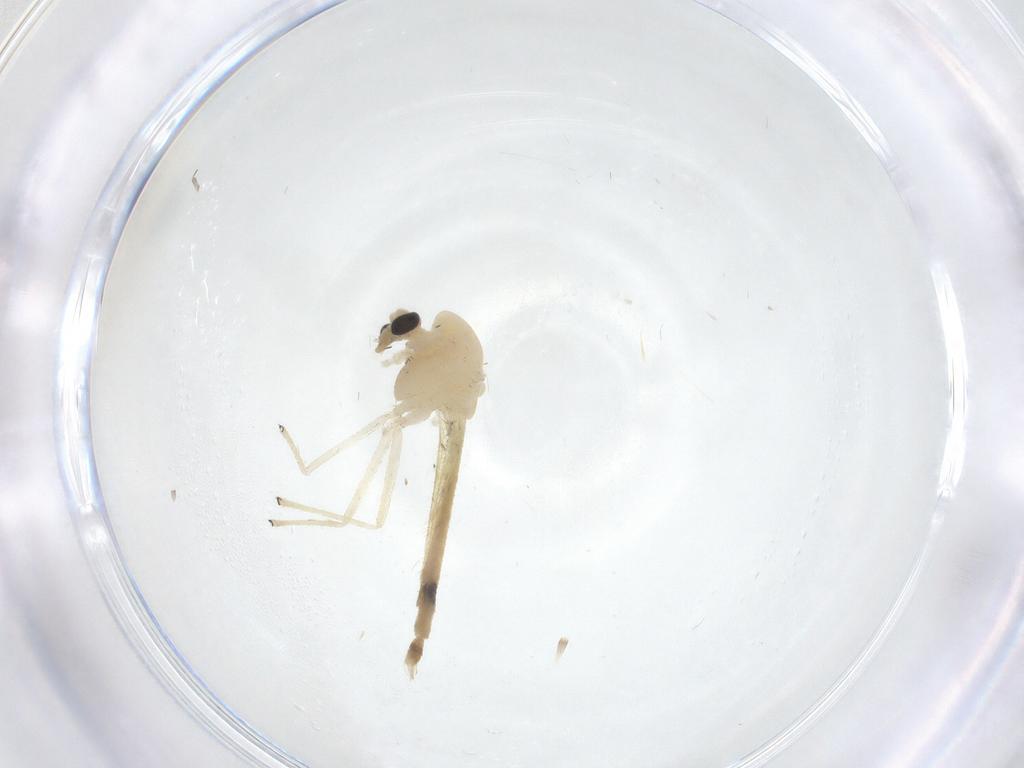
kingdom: Animalia
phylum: Arthropoda
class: Insecta
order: Diptera
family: Chironomidae
